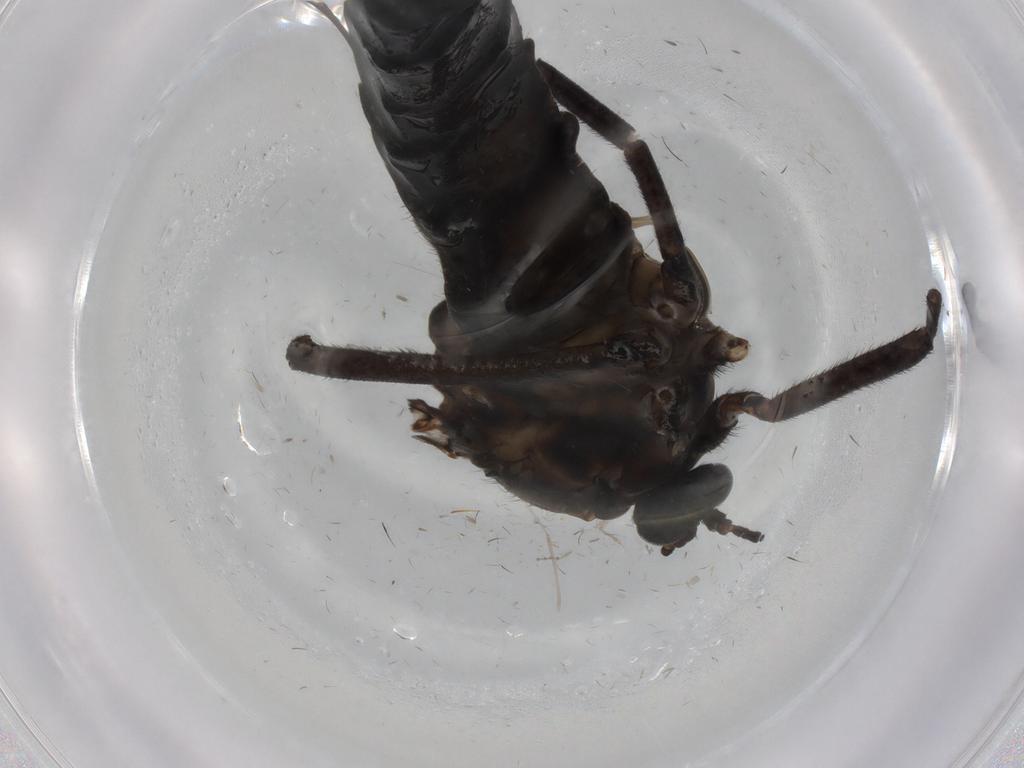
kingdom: Animalia
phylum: Arthropoda
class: Insecta
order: Diptera
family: Sciaridae
